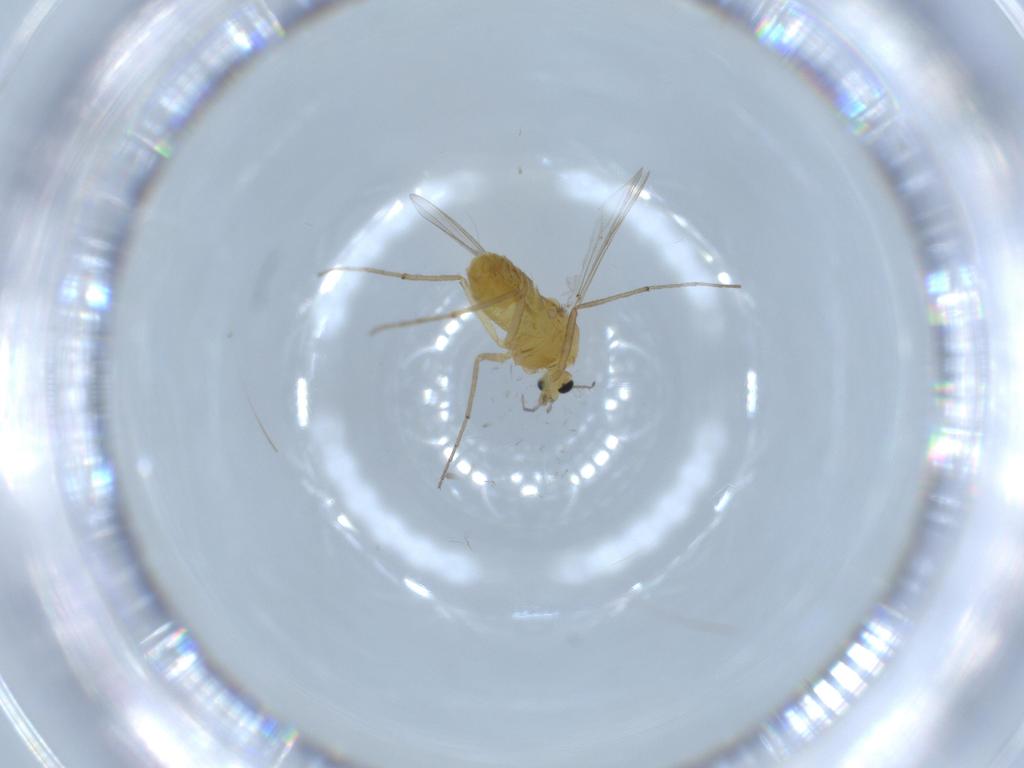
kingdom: Animalia
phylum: Arthropoda
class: Insecta
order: Diptera
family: Chironomidae
